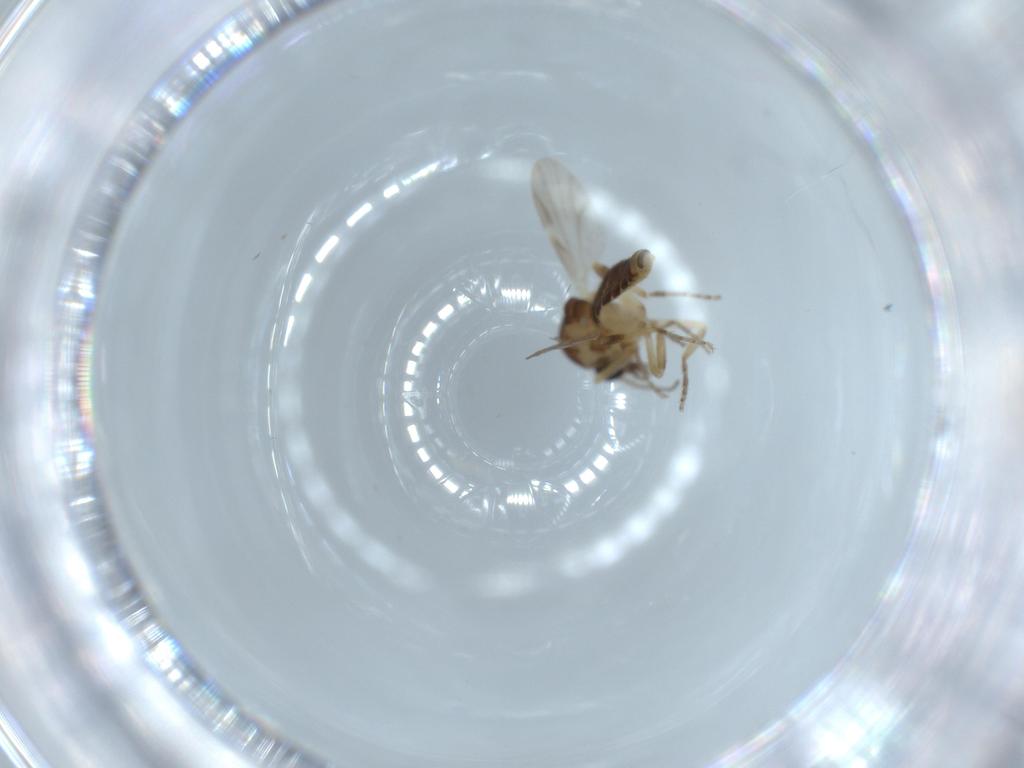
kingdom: Animalia
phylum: Arthropoda
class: Insecta
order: Diptera
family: Ceratopogonidae
